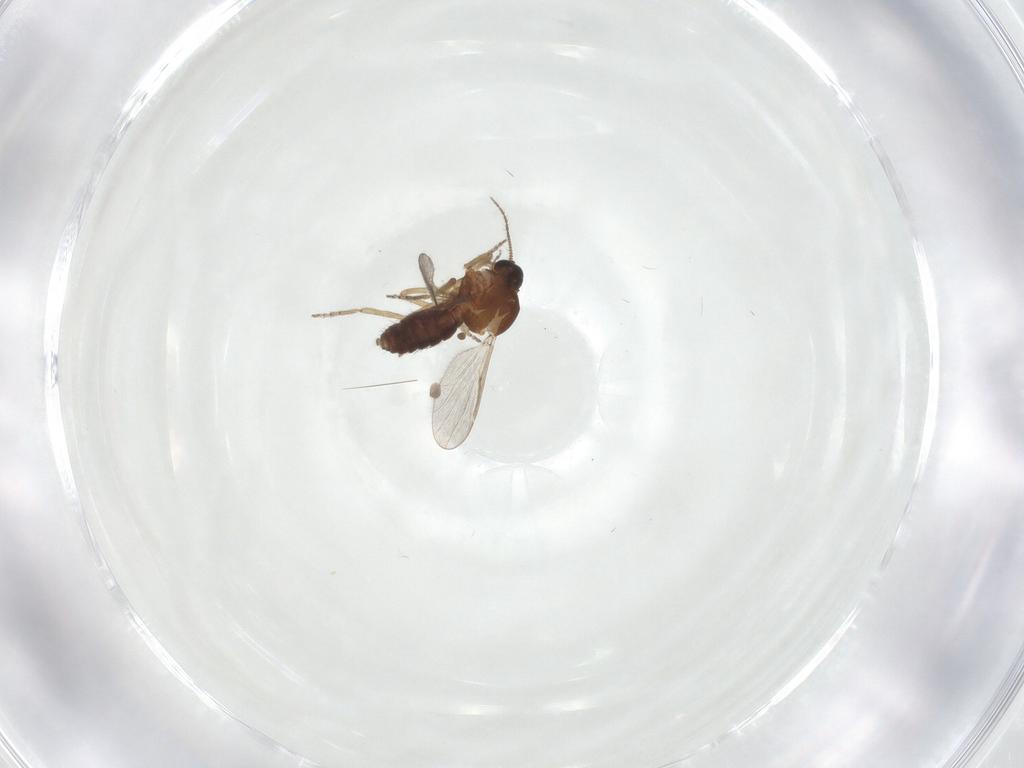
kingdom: Animalia
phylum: Arthropoda
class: Insecta
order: Diptera
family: Ceratopogonidae
